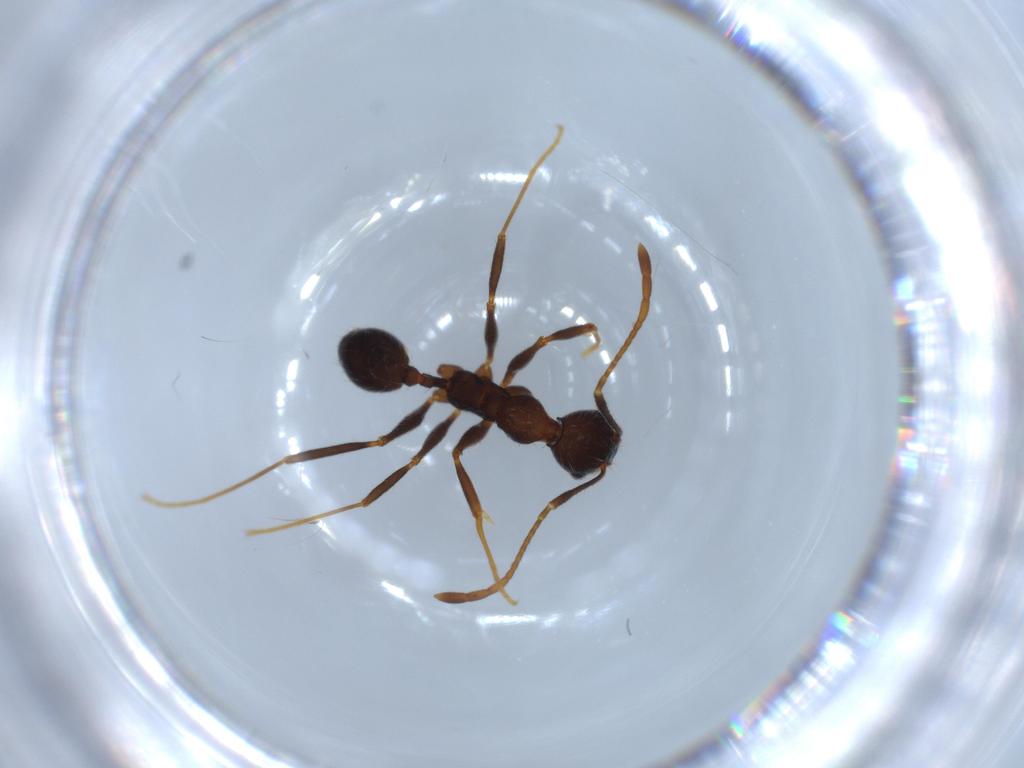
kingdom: Animalia
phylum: Arthropoda
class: Insecta
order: Hymenoptera
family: Formicidae
